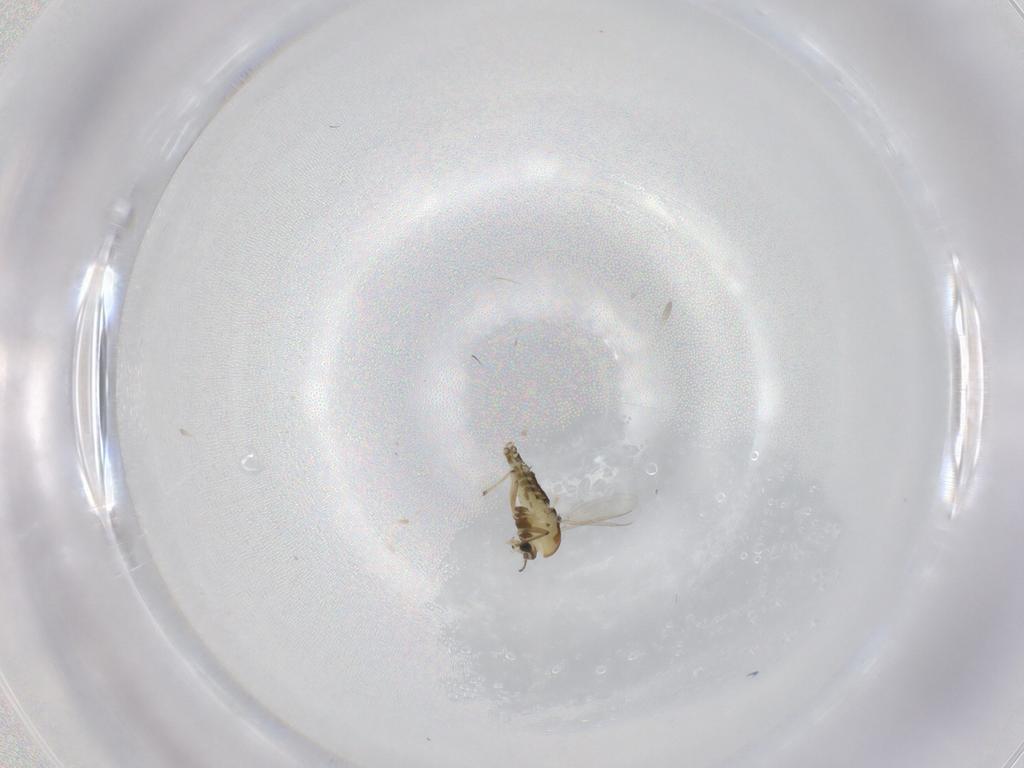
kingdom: Animalia
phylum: Arthropoda
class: Insecta
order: Diptera
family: Chironomidae
